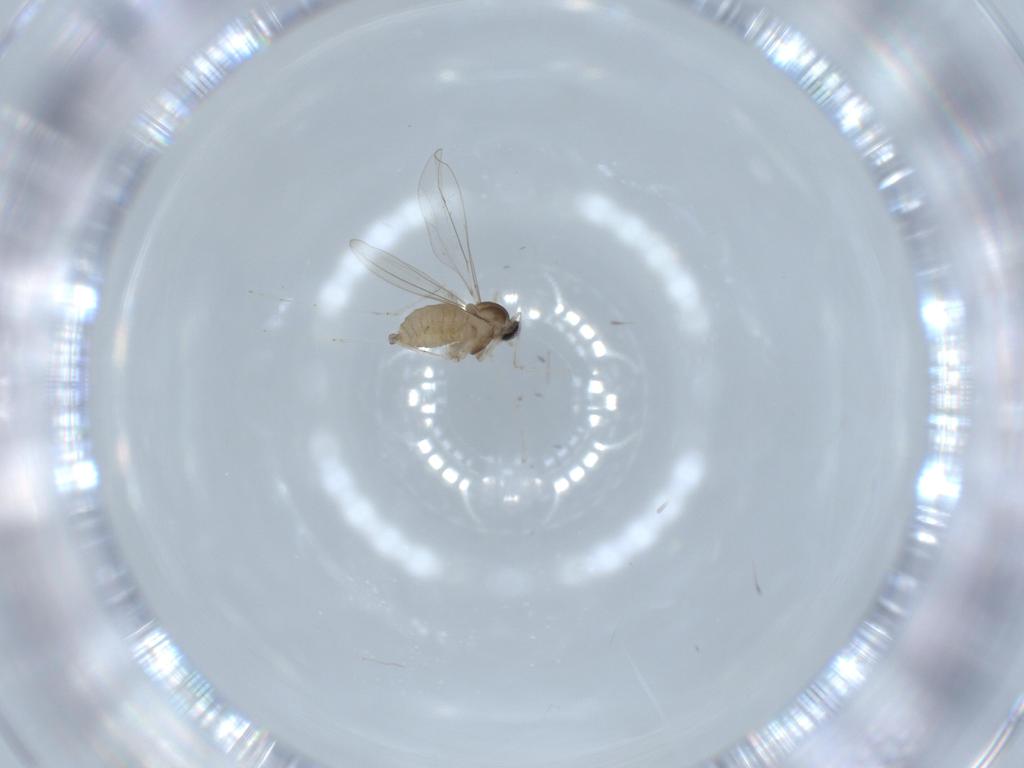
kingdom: Animalia
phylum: Arthropoda
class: Insecta
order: Diptera
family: Cecidomyiidae
